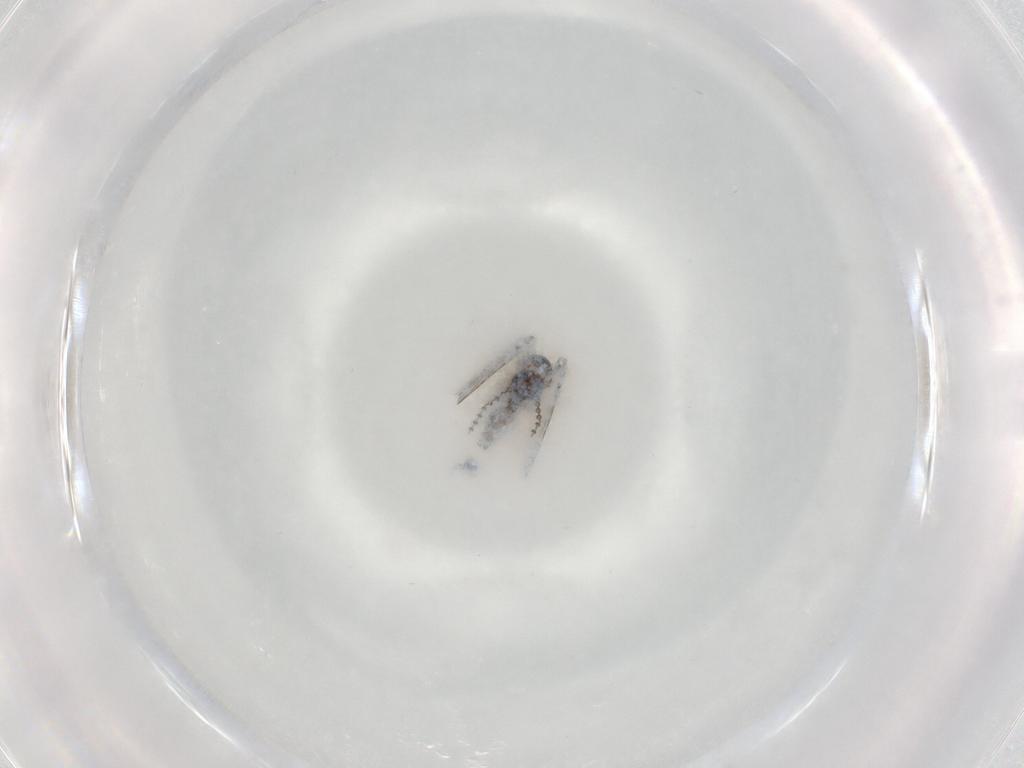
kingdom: Animalia
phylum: Arthropoda
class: Insecta
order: Diptera
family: Psychodidae
